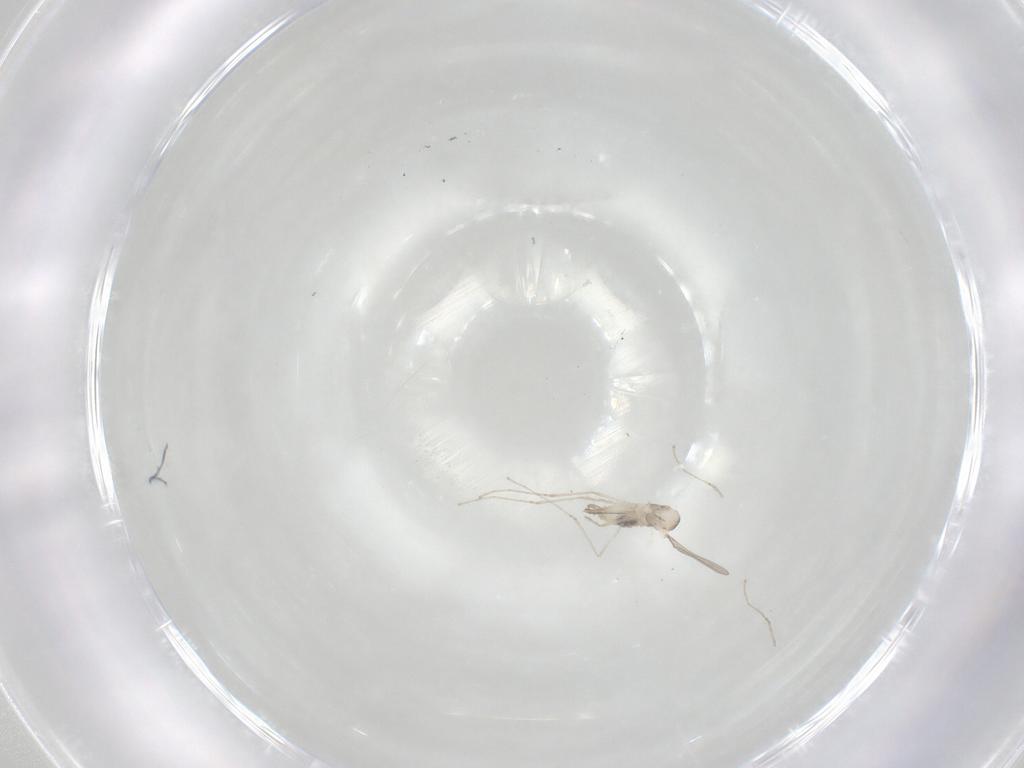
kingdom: Animalia
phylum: Arthropoda
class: Insecta
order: Diptera
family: Cecidomyiidae
